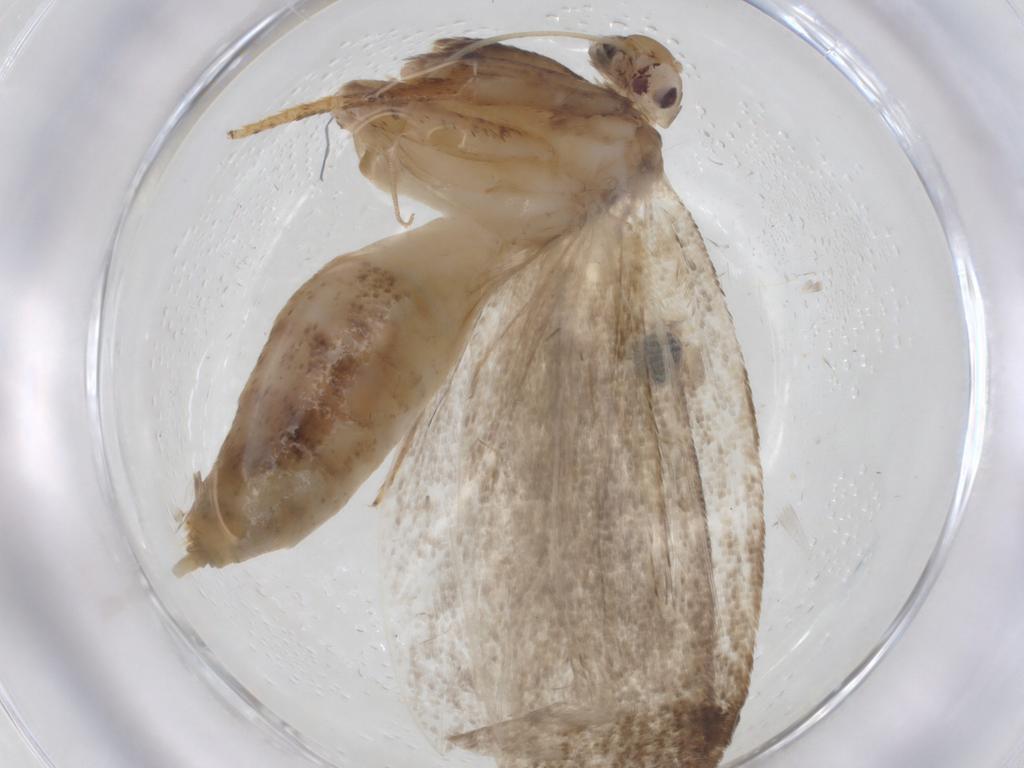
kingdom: Animalia
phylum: Arthropoda
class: Insecta
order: Lepidoptera
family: Depressariidae
